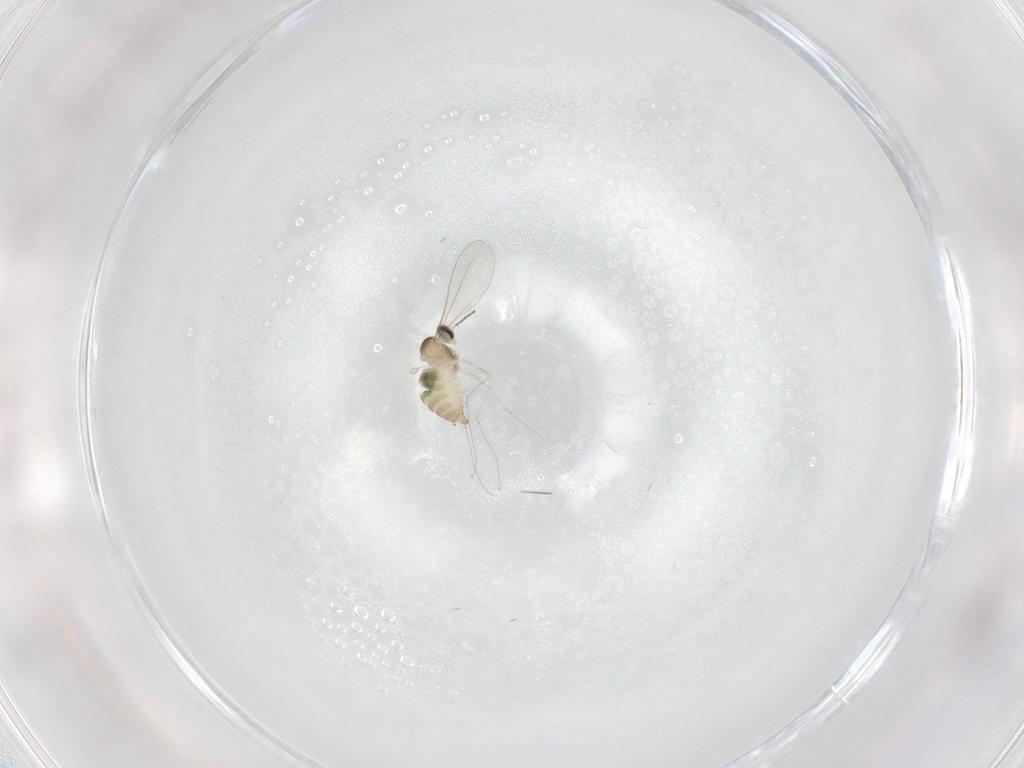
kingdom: Animalia
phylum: Arthropoda
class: Insecta
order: Diptera
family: Cecidomyiidae
